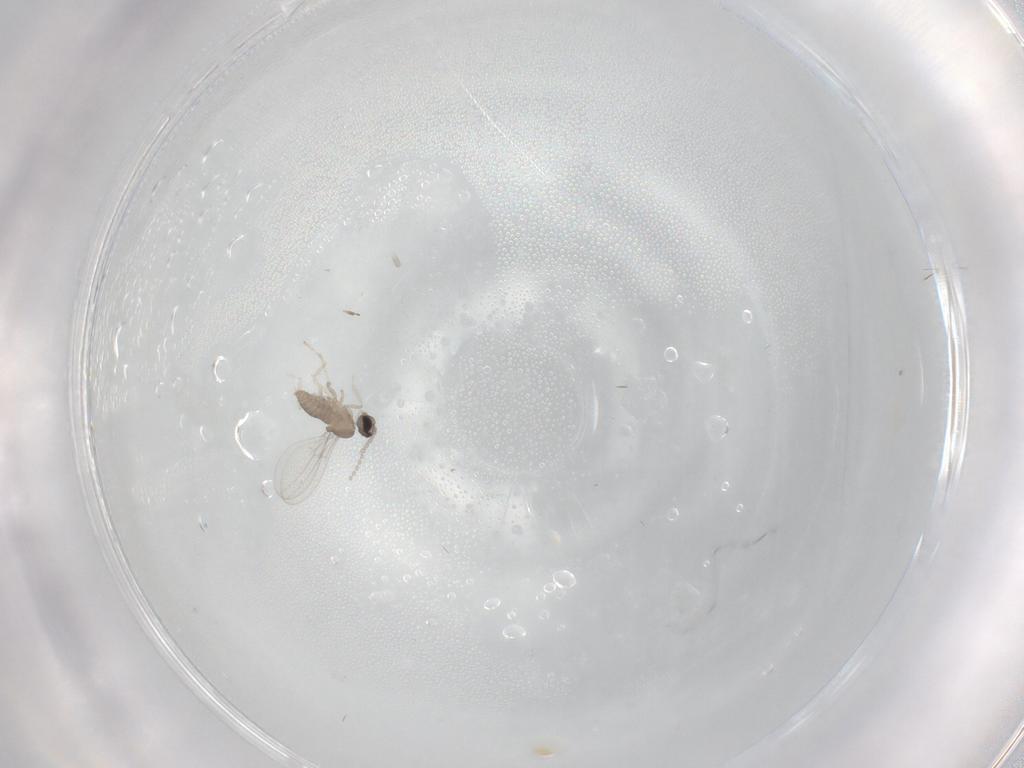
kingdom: Animalia
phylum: Arthropoda
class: Insecta
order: Diptera
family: Cecidomyiidae
